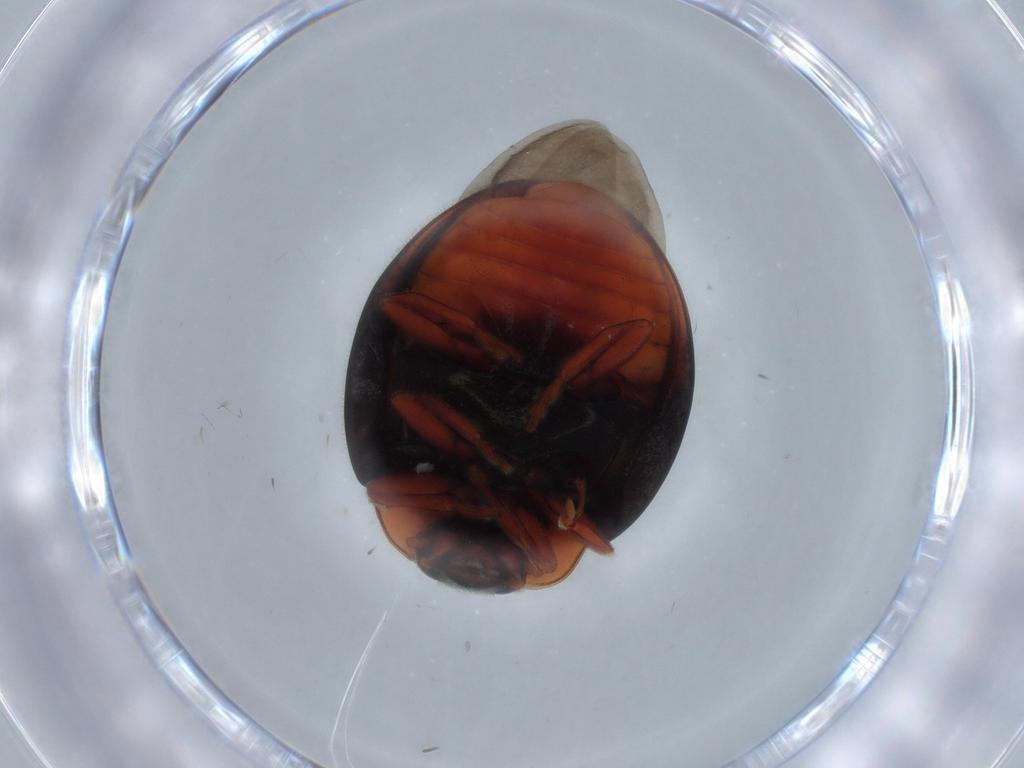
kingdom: Animalia
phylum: Arthropoda
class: Insecta
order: Coleoptera
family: Coccinellidae
